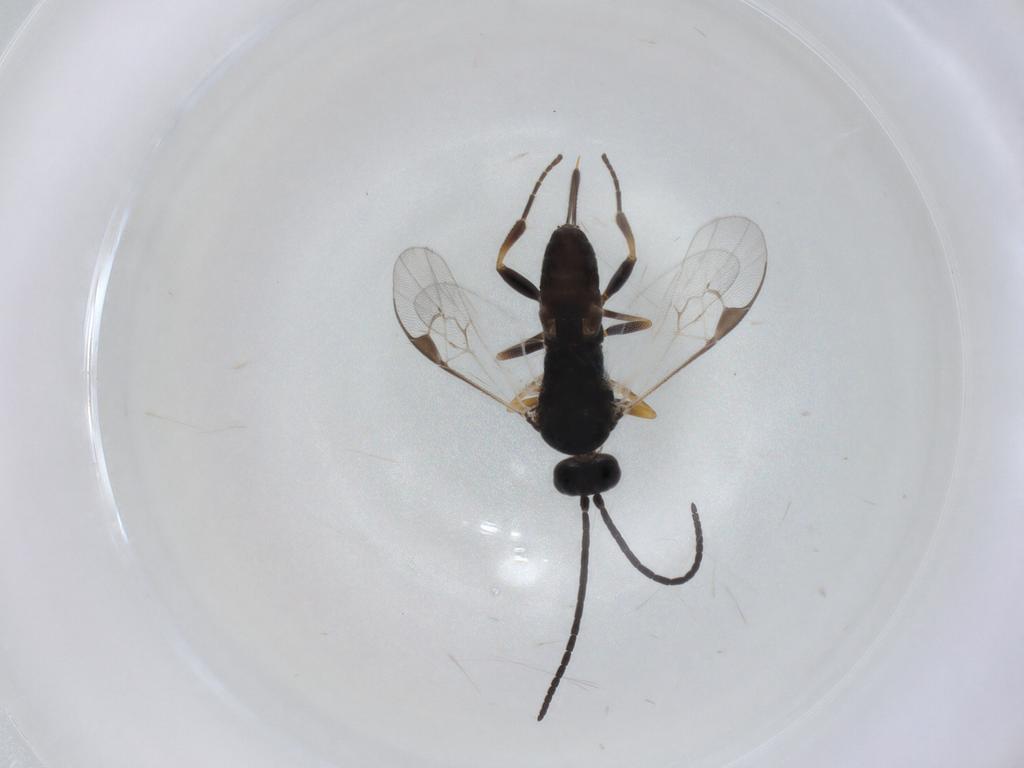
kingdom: Animalia
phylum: Arthropoda
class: Insecta
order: Hymenoptera
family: Braconidae
